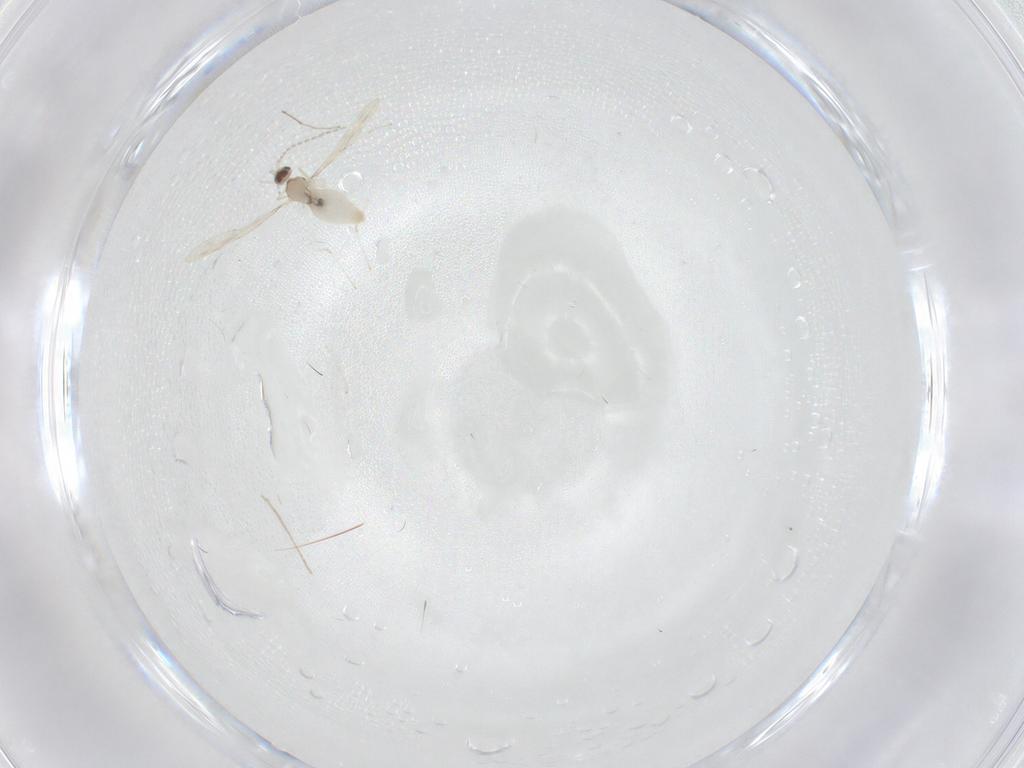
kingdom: Animalia
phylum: Arthropoda
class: Insecta
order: Diptera
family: Cecidomyiidae
